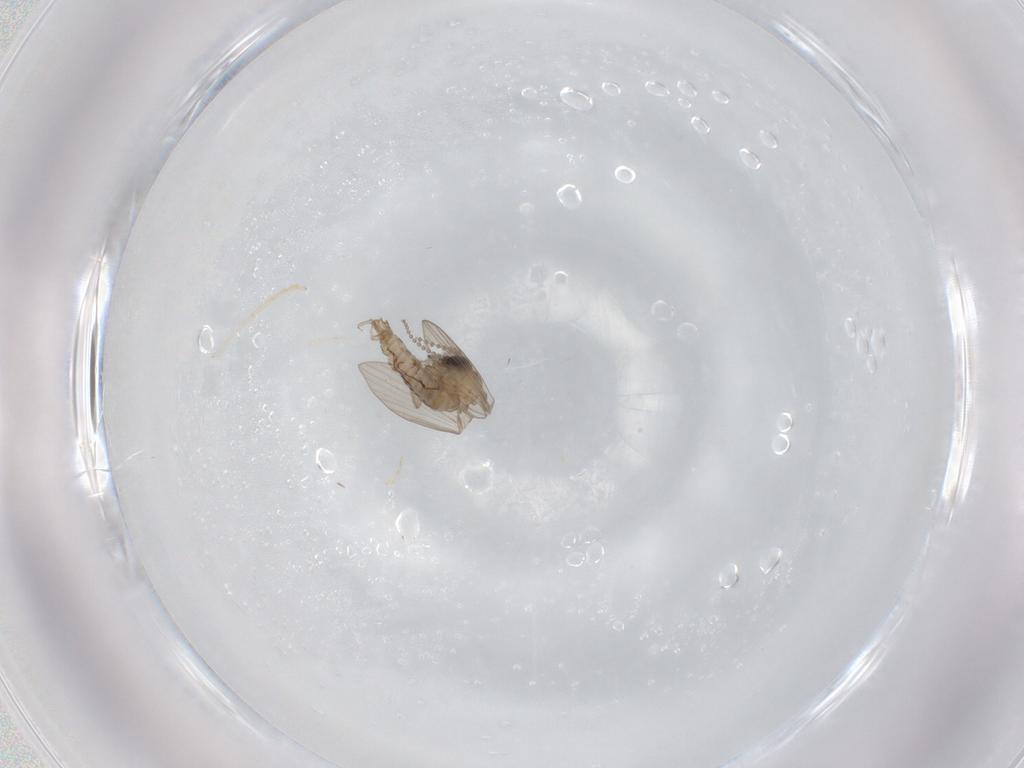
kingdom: Animalia
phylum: Arthropoda
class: Insecta
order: Diptera
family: Psychodidae
